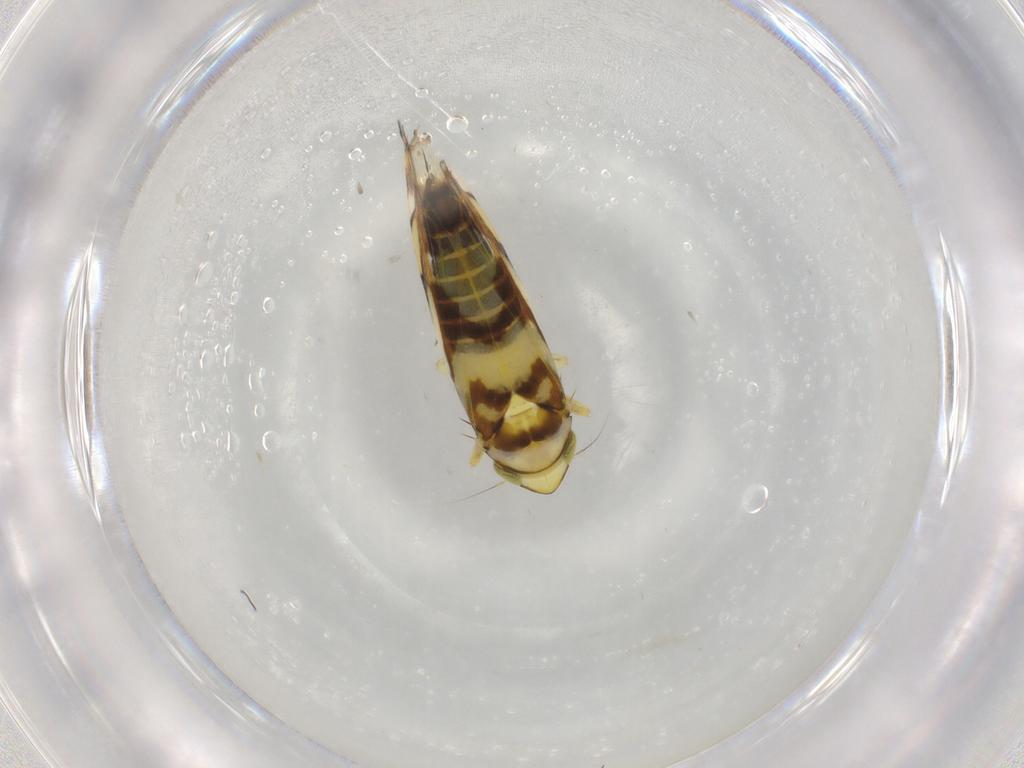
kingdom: Animalia
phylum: Arthropoda
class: Insecta
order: Hemiptera
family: Cicadellidae
